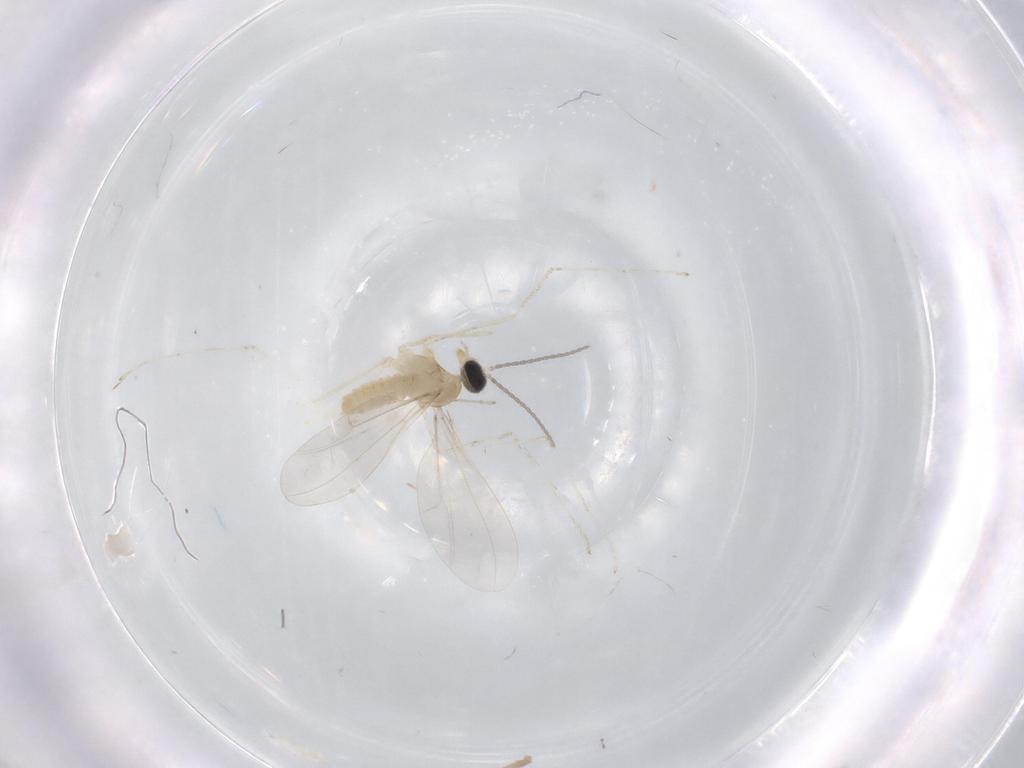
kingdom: Animalia
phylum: Arthropoda
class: Insecta
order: Diptera
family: Cecidomyiidae
